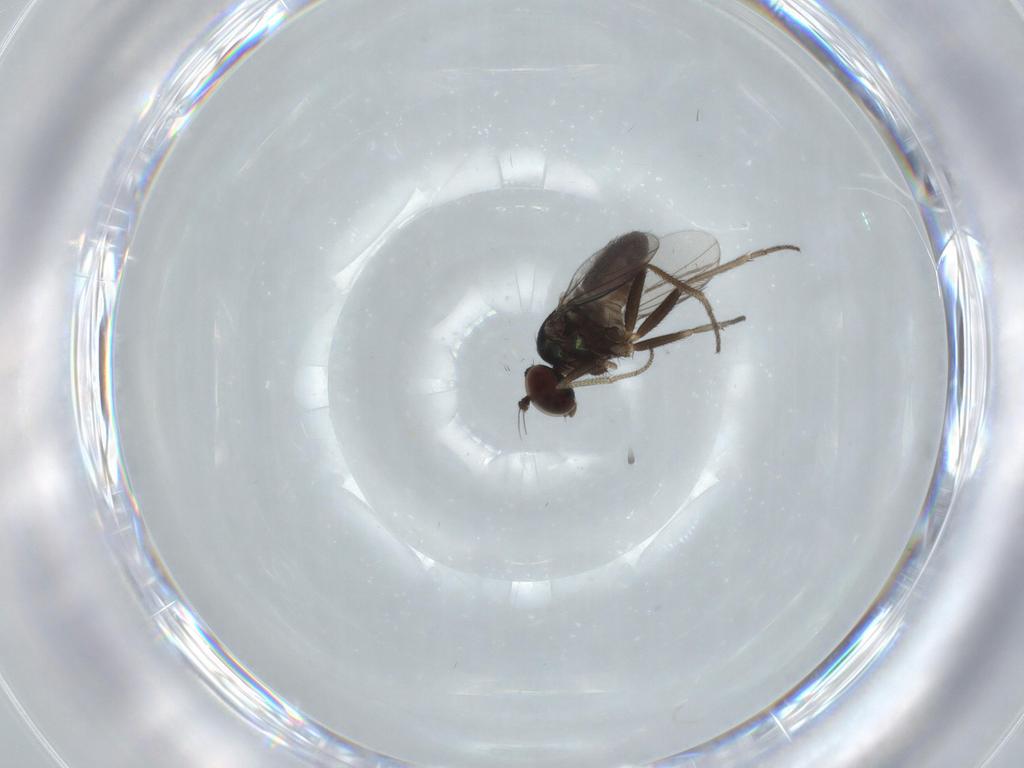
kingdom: Animalia
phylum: Arthropoda
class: Insecta
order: Diptera
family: Dolichopodidae
